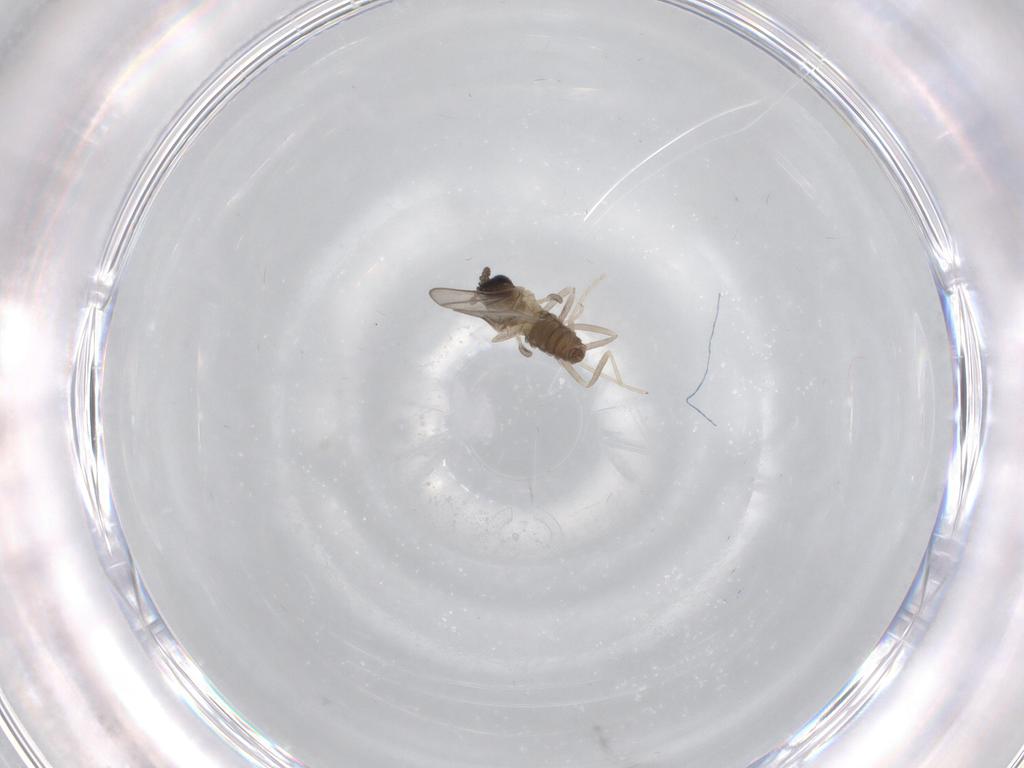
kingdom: Animalia
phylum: Arthropoda
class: Insecta
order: Diptera
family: Cecidomyiidae
